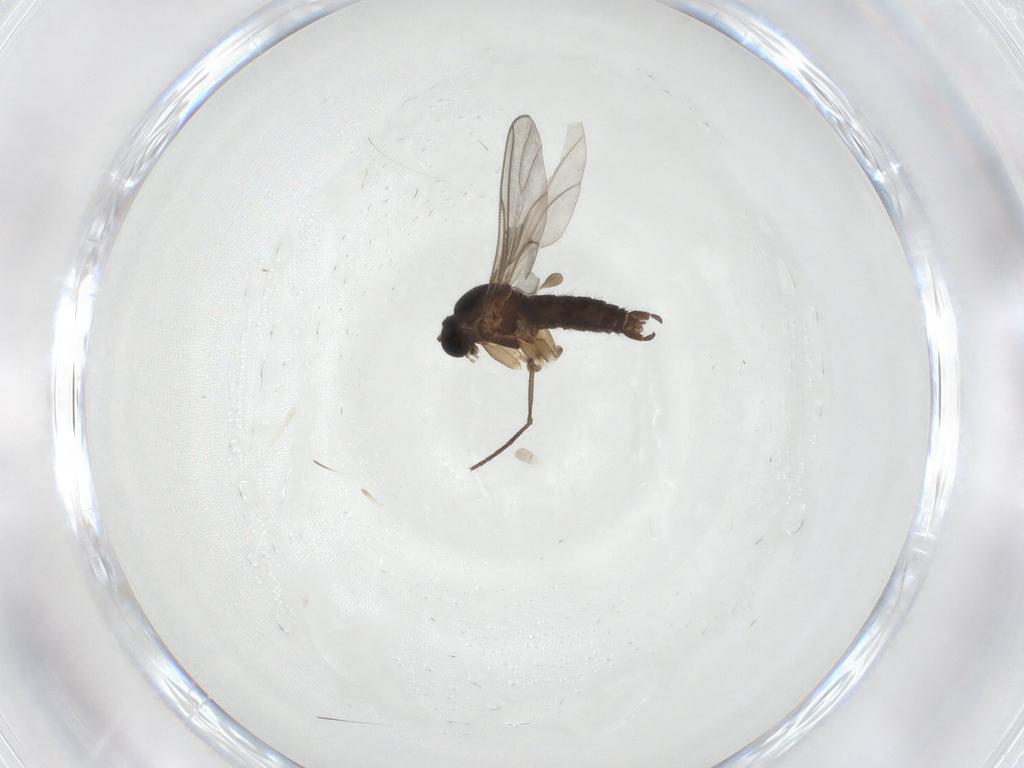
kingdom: Animalia
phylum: Arthropoda
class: Insecta
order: Diptera
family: Sciaridae
